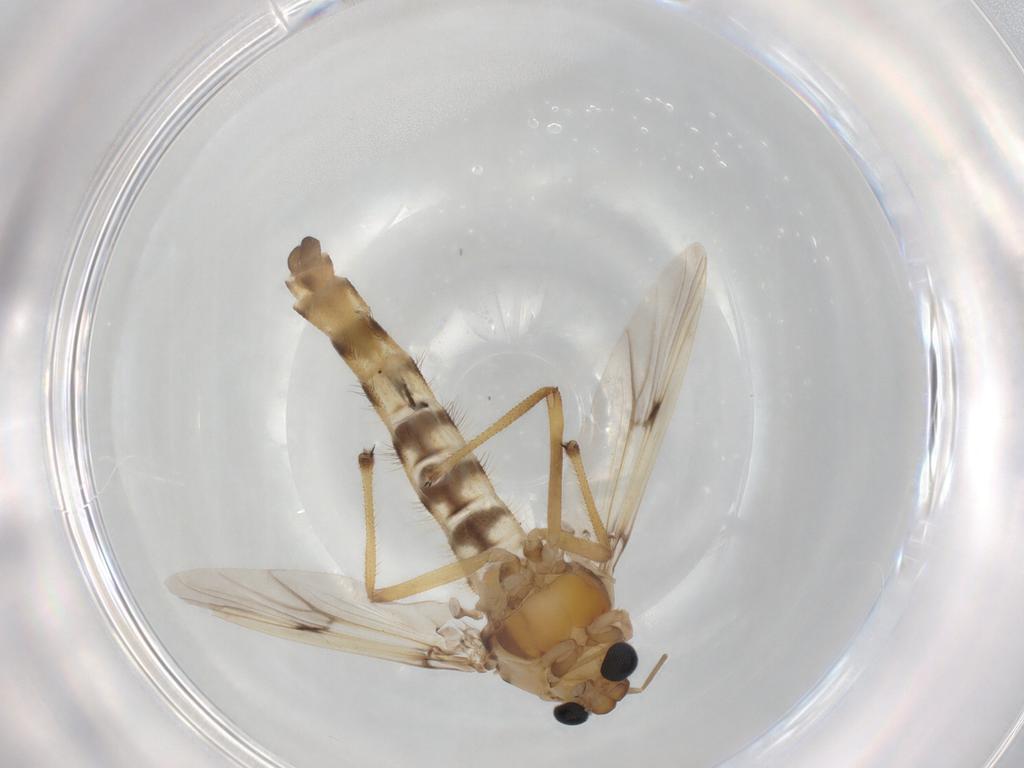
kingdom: Animalia
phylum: Arthropoda
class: Insecta
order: Diptera
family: Chironomidae
